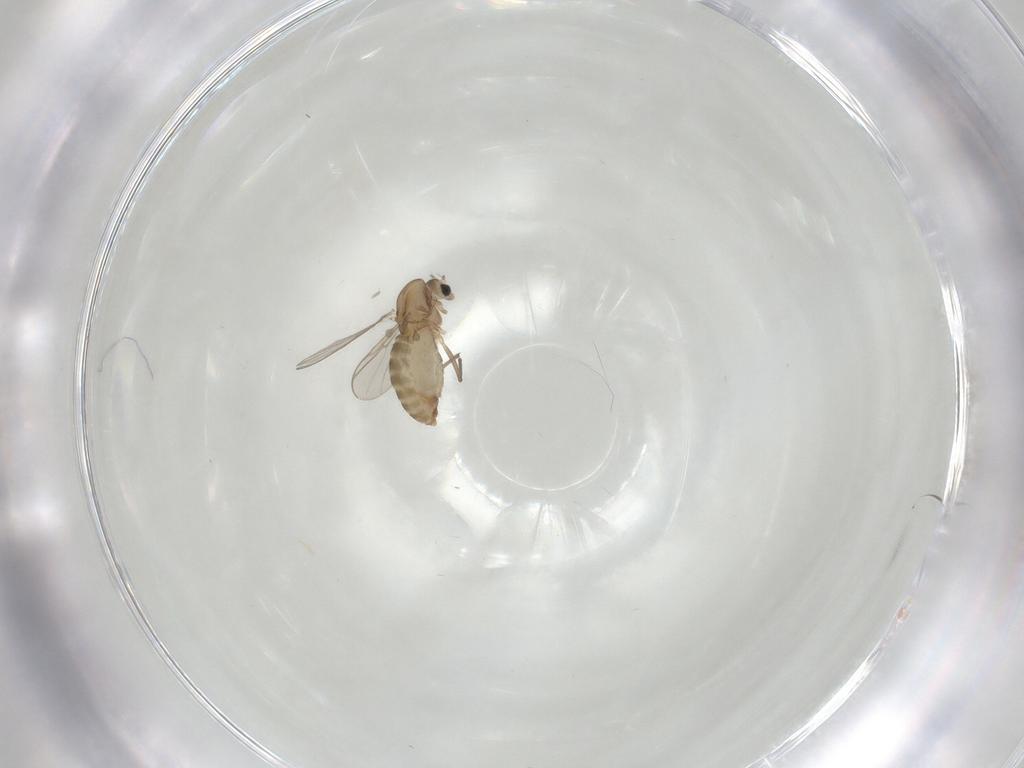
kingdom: Animalia
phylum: Arthropoda
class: Insecta
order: Diptera
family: Chironomidae
